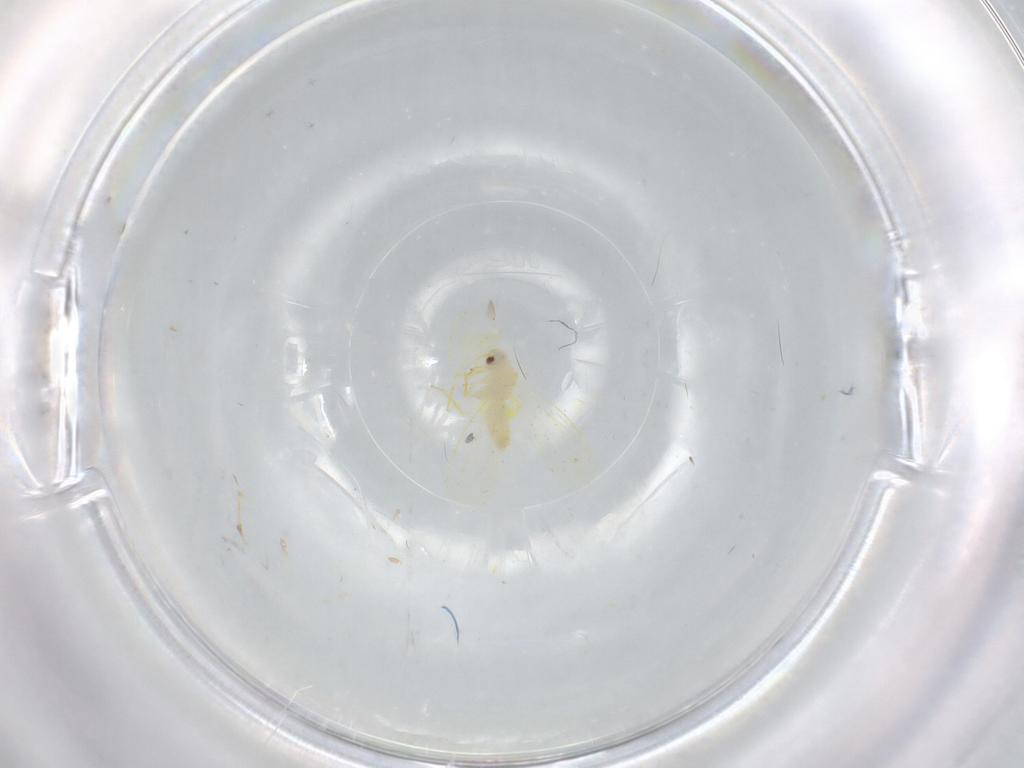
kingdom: Animalia
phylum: Arthropoda
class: Insecta
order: Hemiptera
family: Aleyrodidae
